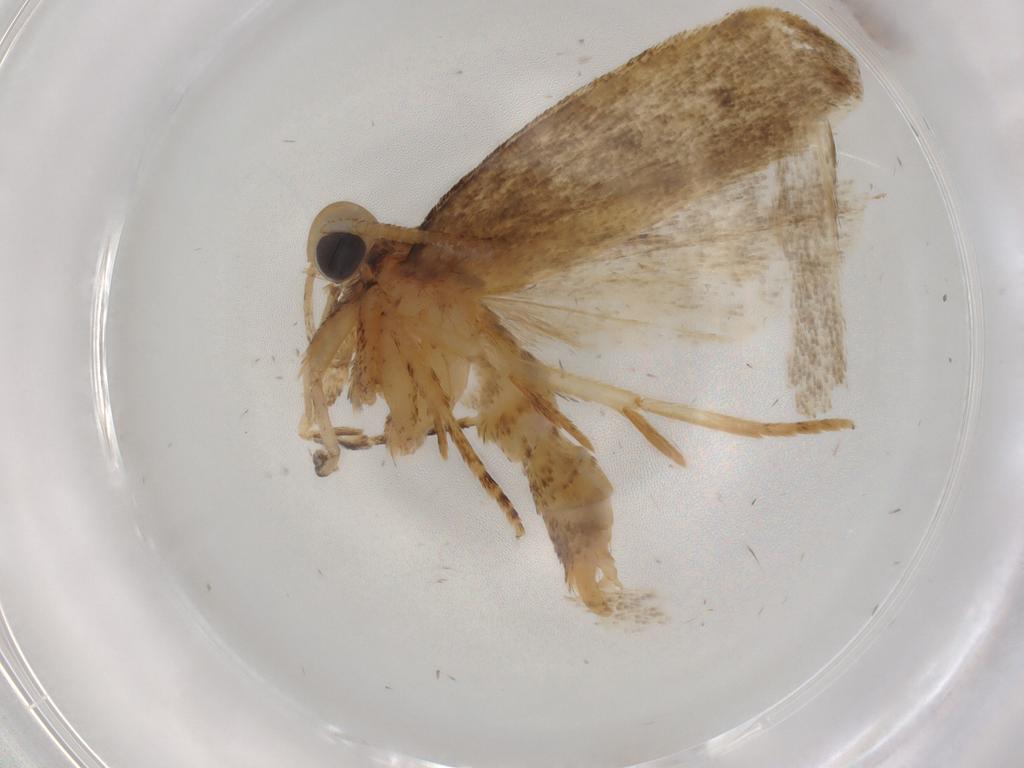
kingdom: Animalia
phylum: Arthropoda
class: Insecta
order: Lepidoptera
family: Autostichidae
